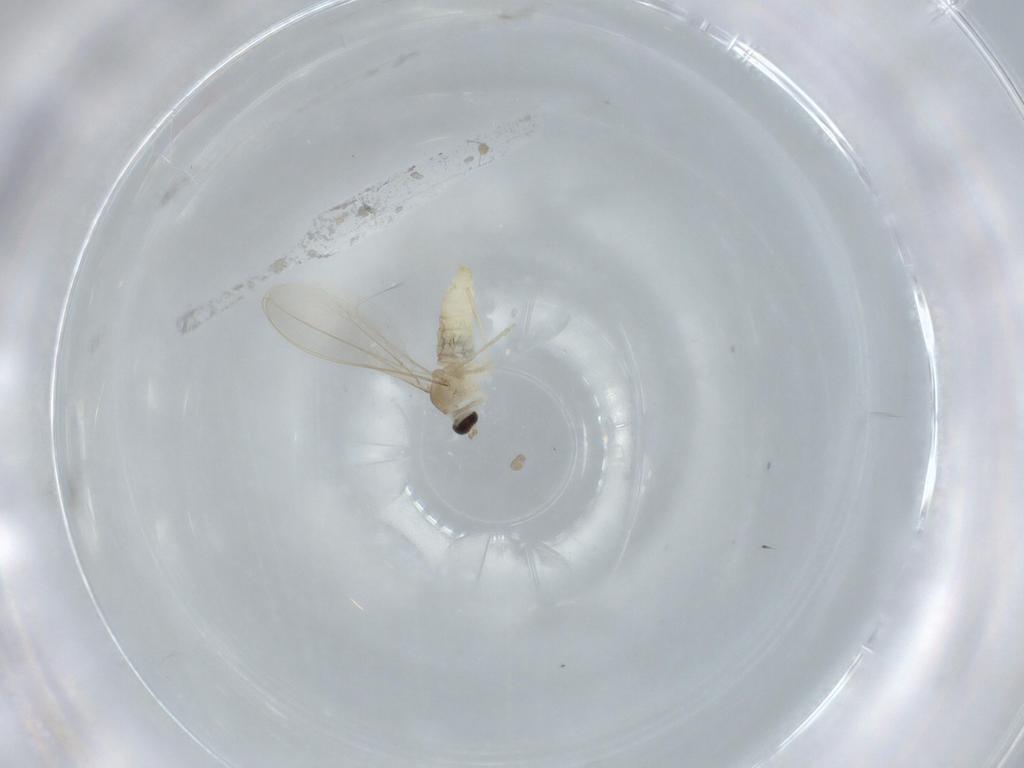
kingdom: Animalia
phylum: Arthropoda
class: Insecta
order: Diptera
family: Cecidomyiidae
